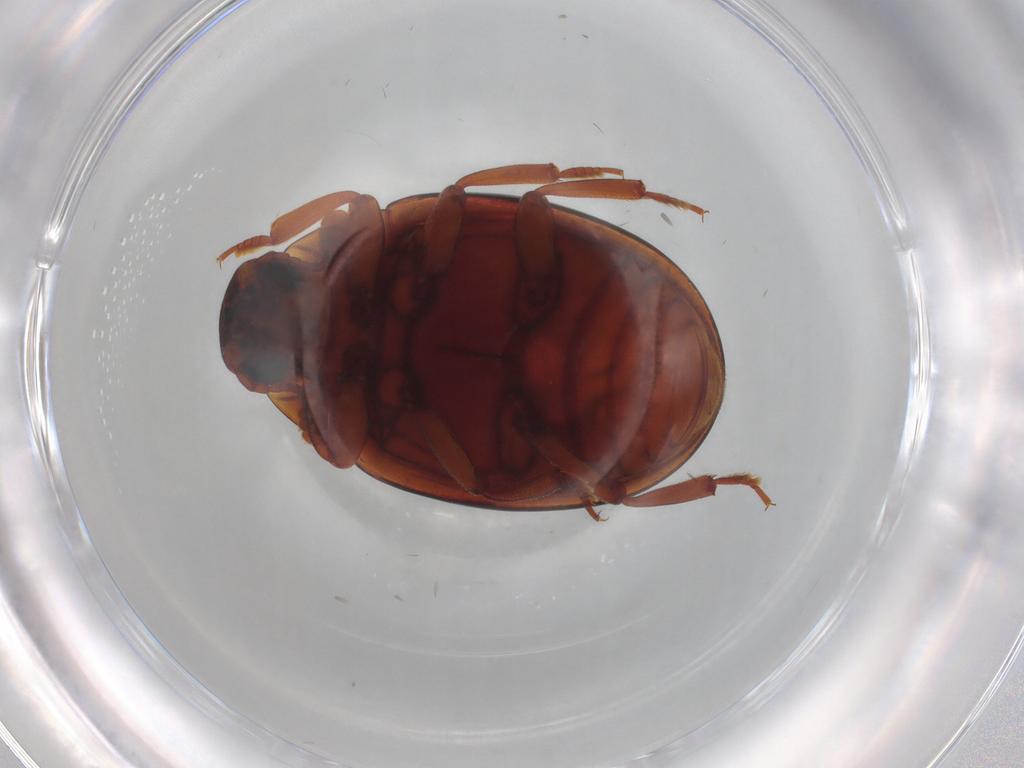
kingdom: Animalia
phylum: Arthropoda
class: Insecta
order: Coleoptera
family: Zopheridae
